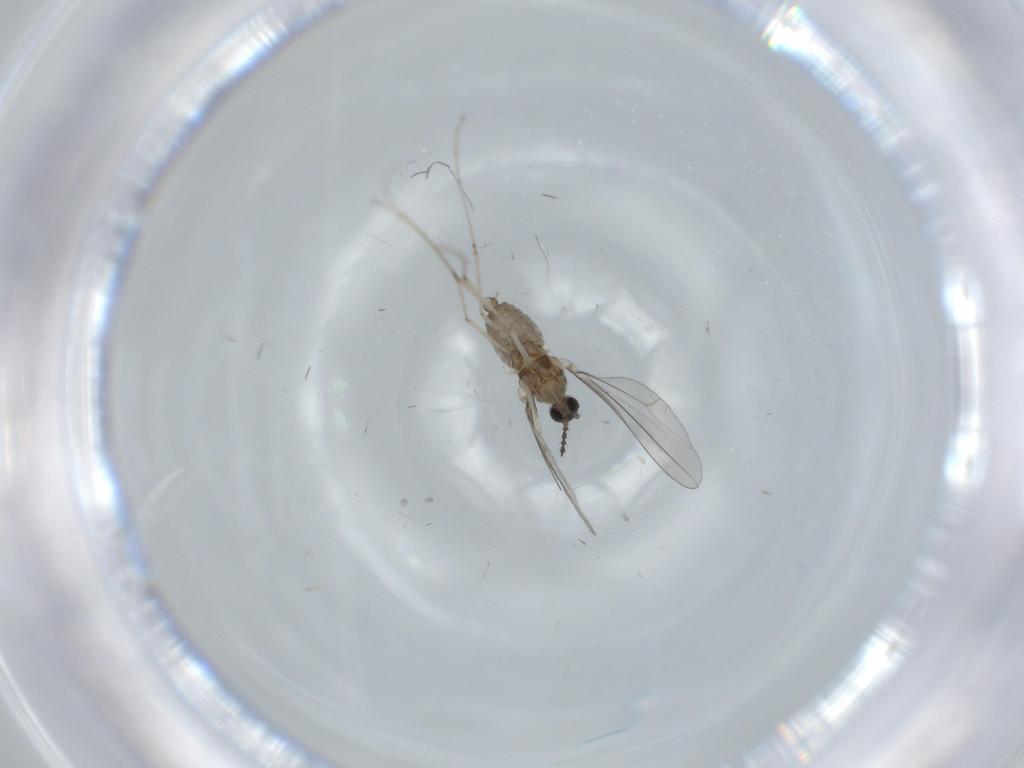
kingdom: Animalia
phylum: Arthropoda
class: Insecta
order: Diptera
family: Cecidomyiidae
